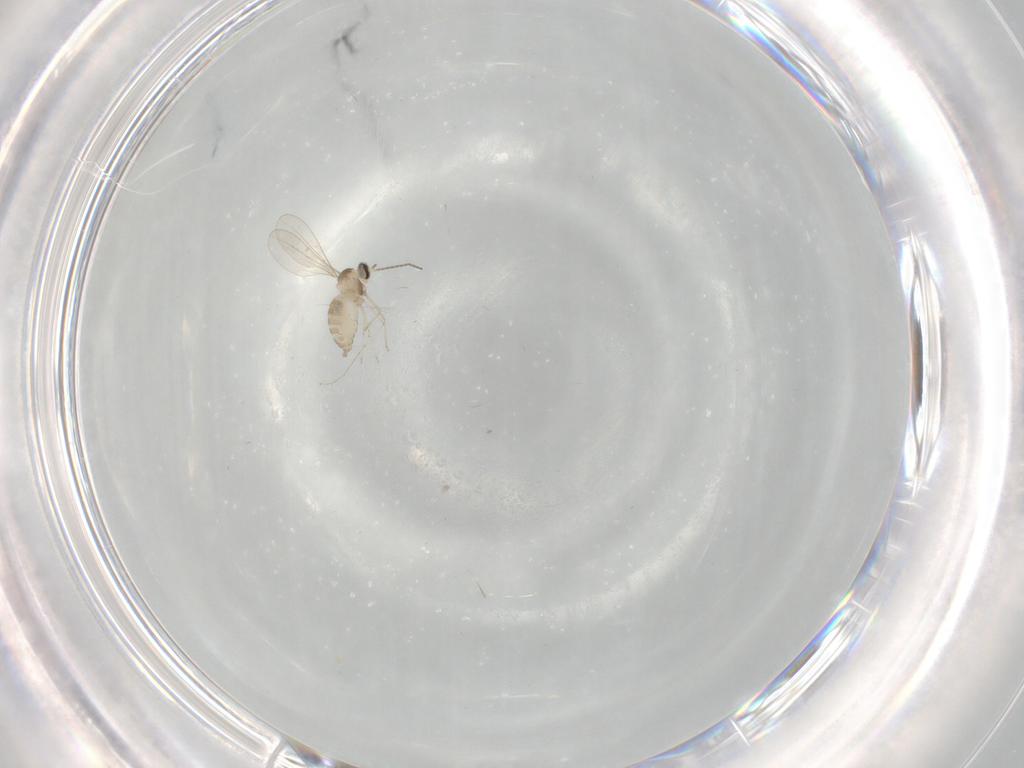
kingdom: Animalia
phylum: Arthropoda
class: Insecta
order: Diptera
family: Cecidomyiidae
